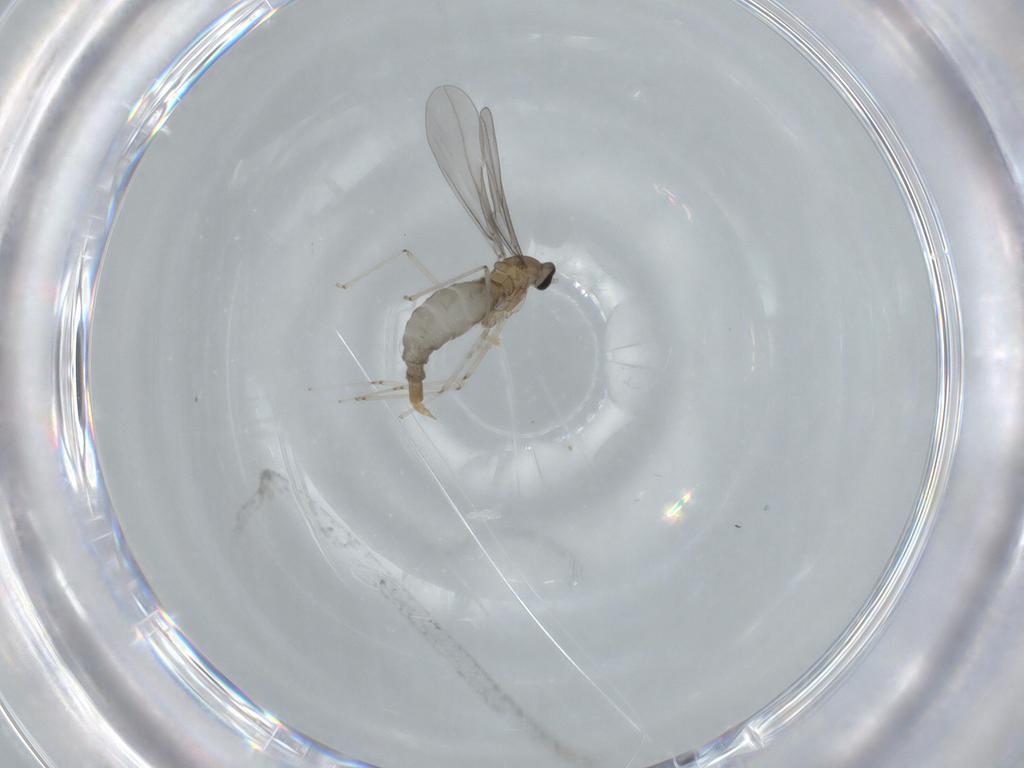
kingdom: Animalia
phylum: Arthropoda
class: Insecta
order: Diptera
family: Cecidomyiidae
